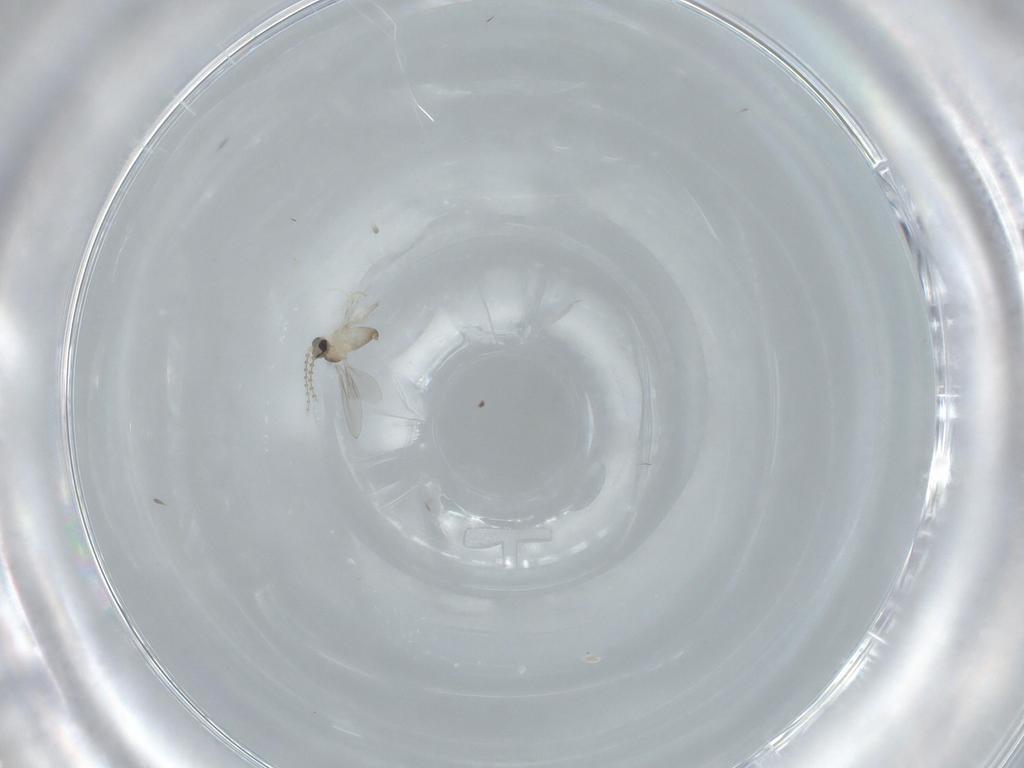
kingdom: Animalia
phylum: Arthropoda
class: Insecta
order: Diptera
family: Cecidomyiidae
